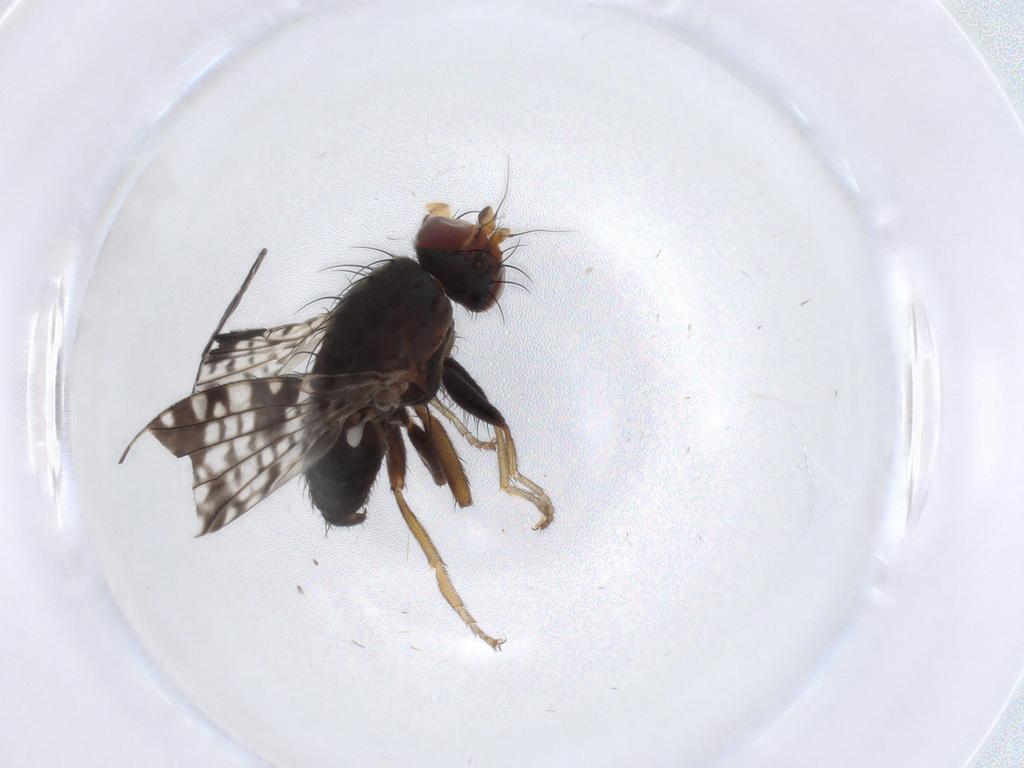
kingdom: Animalia
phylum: Arthropoda
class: Insecta
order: Diptera
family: Tephritidae
